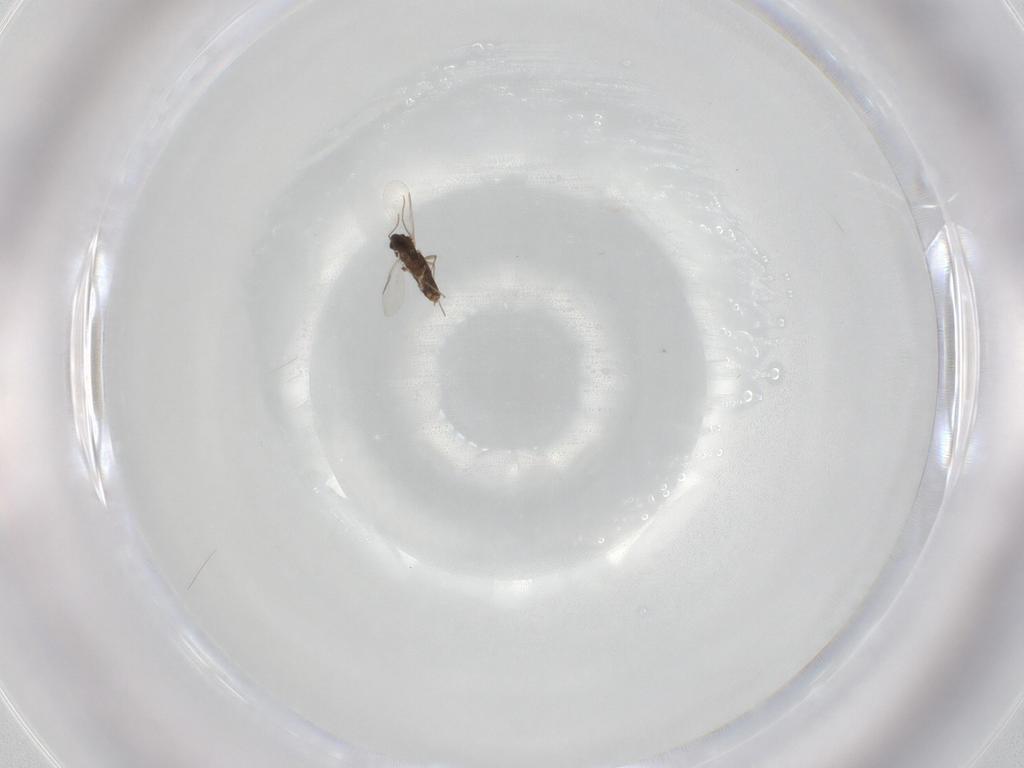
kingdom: Animalia
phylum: Arthropoda
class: Insecta
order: Diptera
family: Chironomidae
